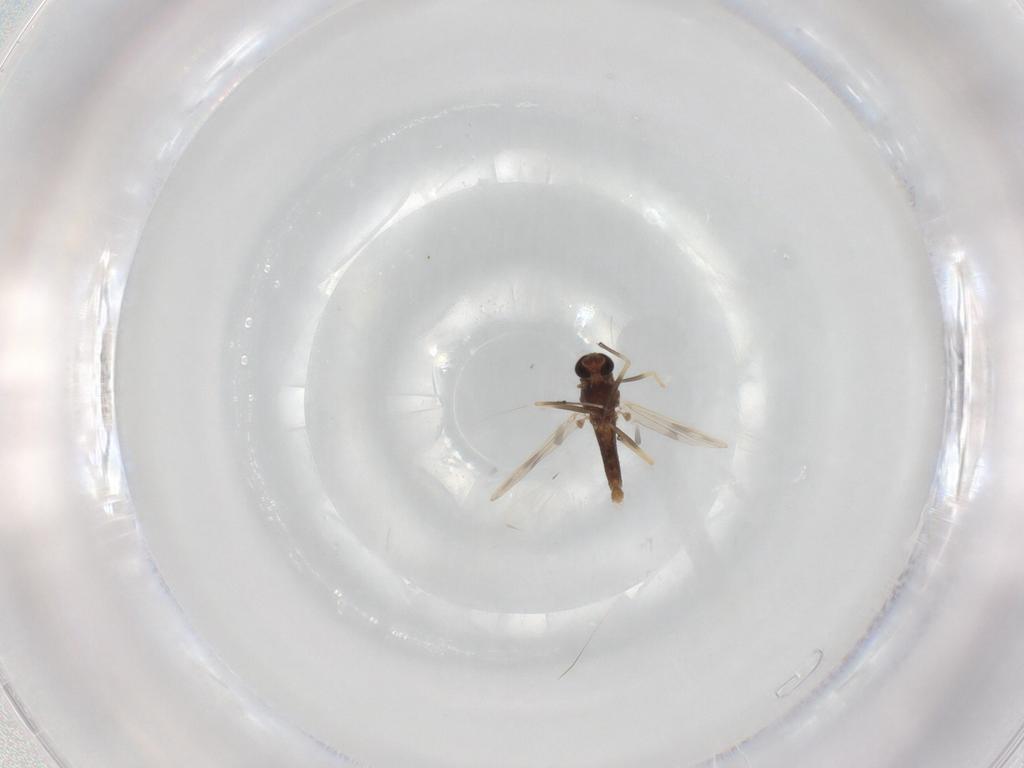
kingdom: Animalia
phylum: Arthropoda
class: Insecta
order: Diptera
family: Chironomidae
